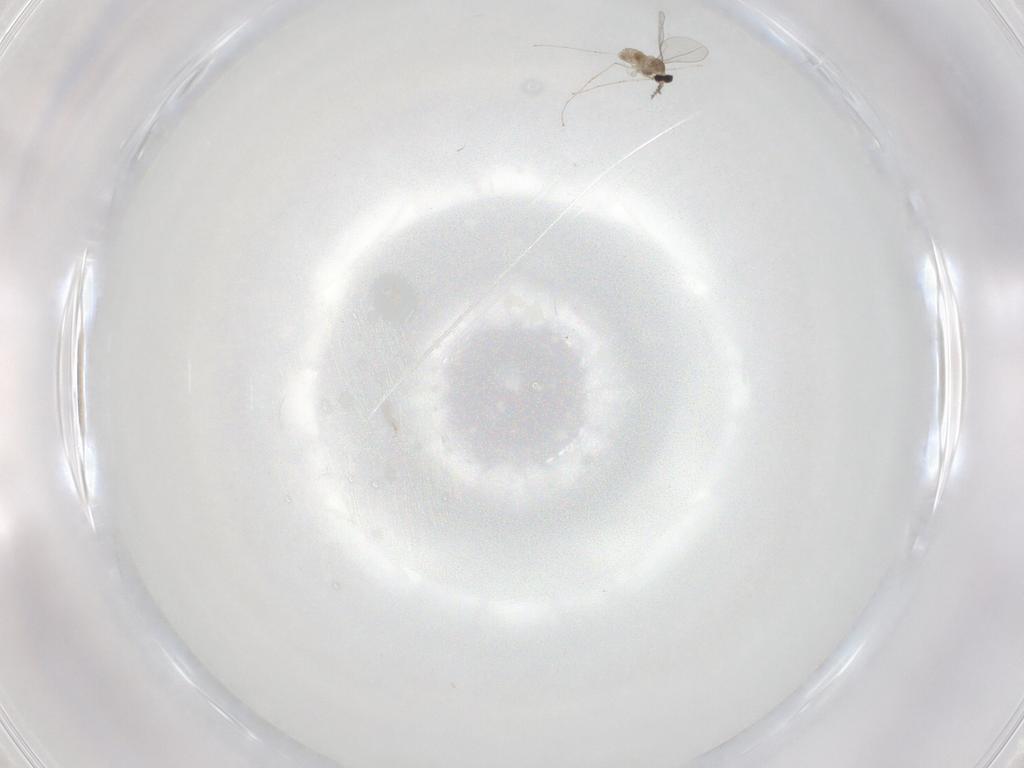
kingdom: Animalia
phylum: Arthropoda
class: Insecta
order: Diptera
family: Cecidomyiidae
